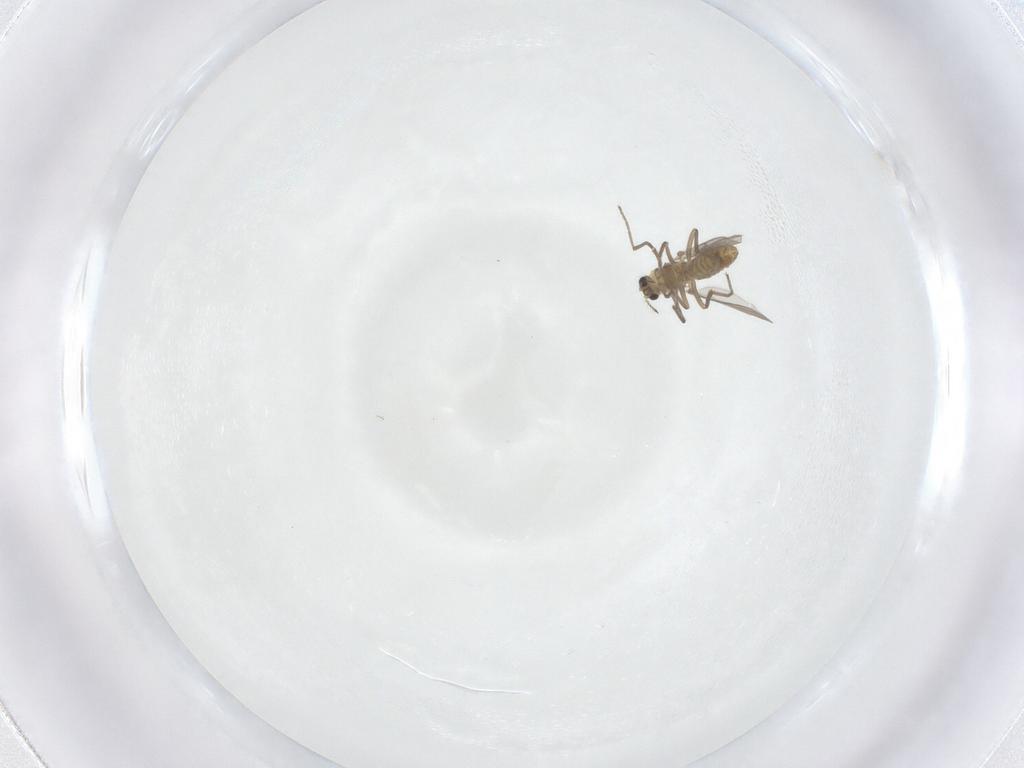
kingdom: Animalia
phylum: Arthropoda
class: Insecta
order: Diptera
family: Chironomidae
